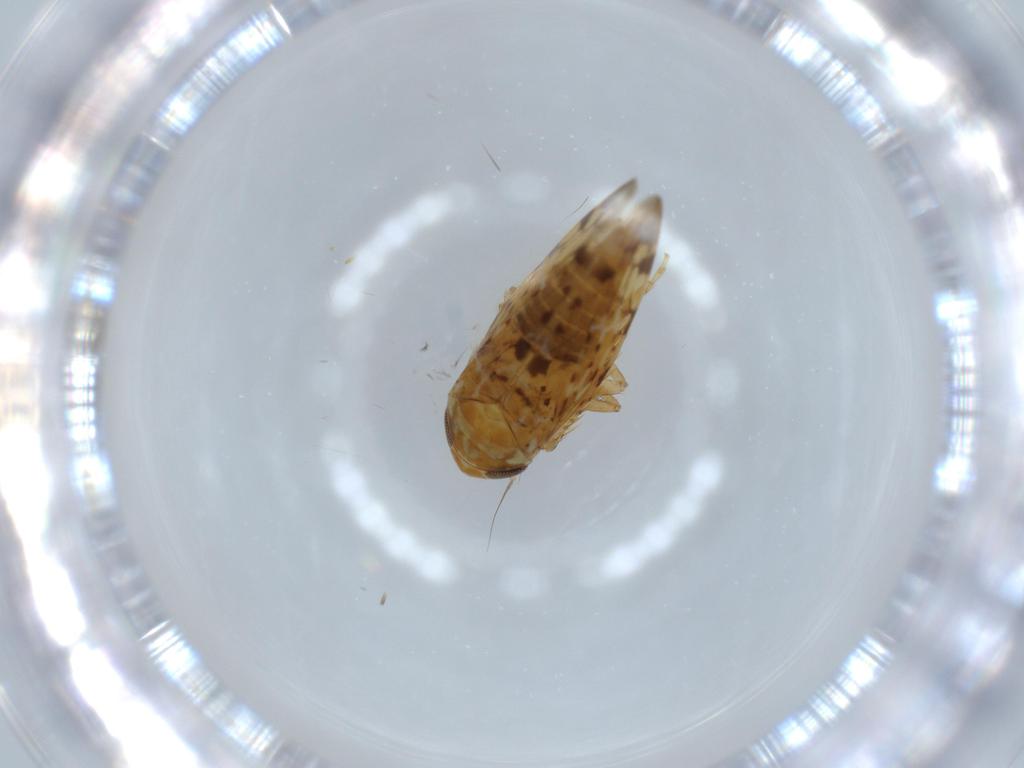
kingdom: Animalia
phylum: Arthropoda
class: Insecta
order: Hemiptera
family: Cicadellidae
